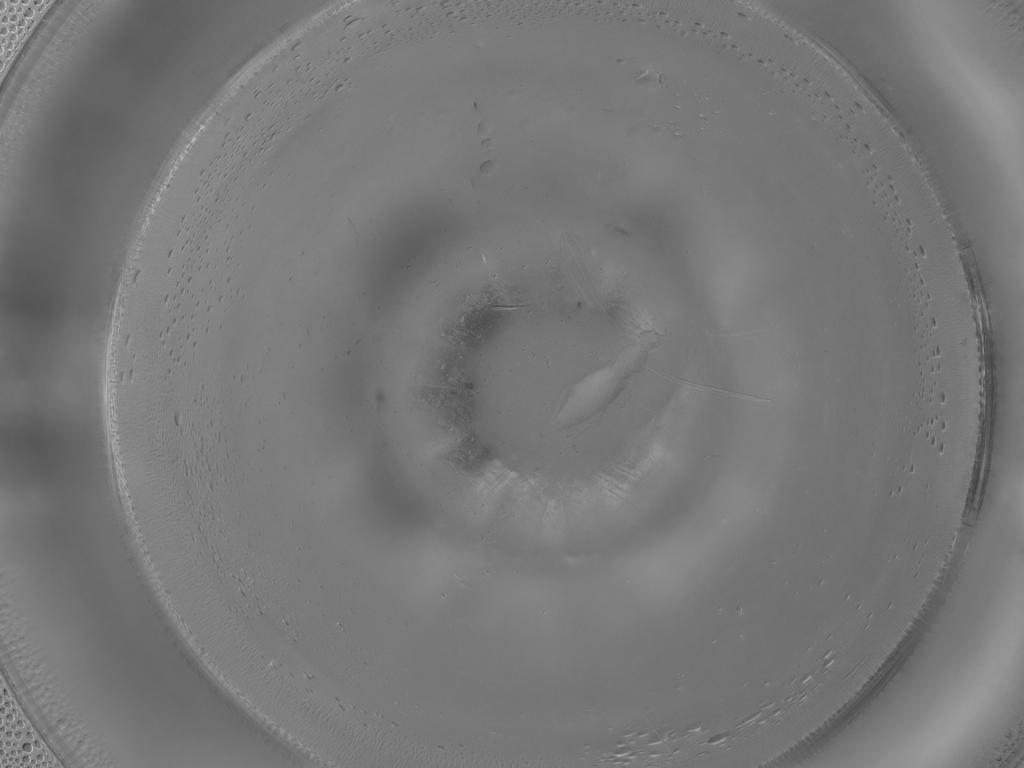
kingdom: Animalia
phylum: Arthropoda
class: Insecta
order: Diptera
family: Cecidomyiidae
